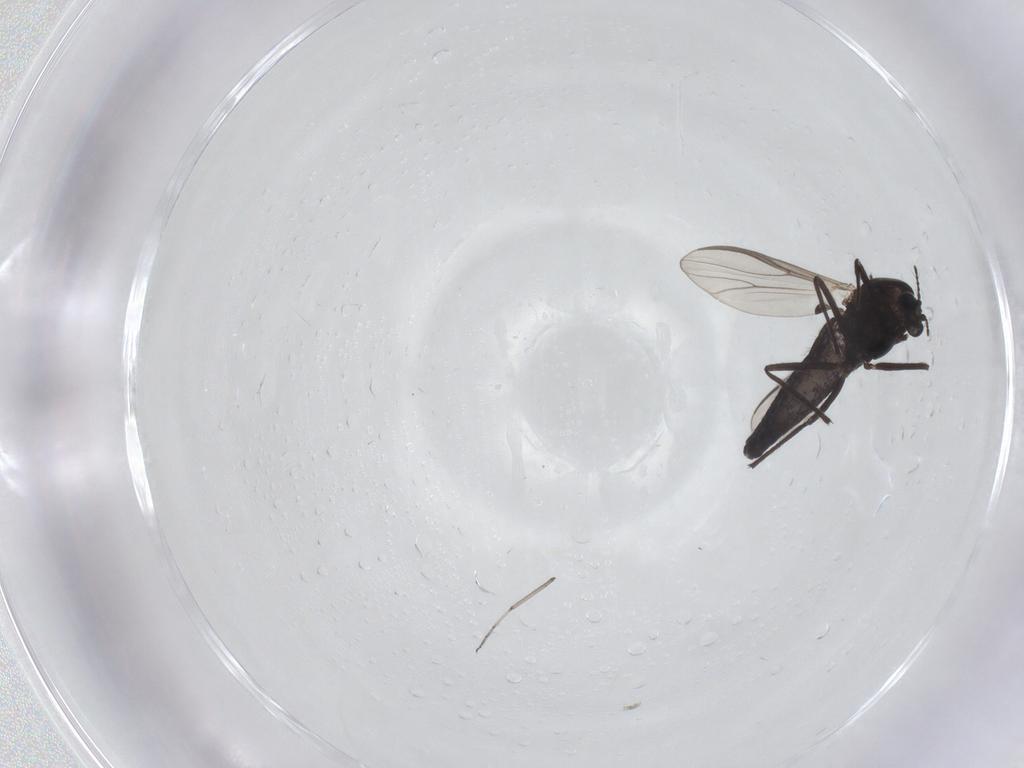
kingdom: Animalia
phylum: Arthropoda
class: Insecta
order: Diptera
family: Chironomidae
